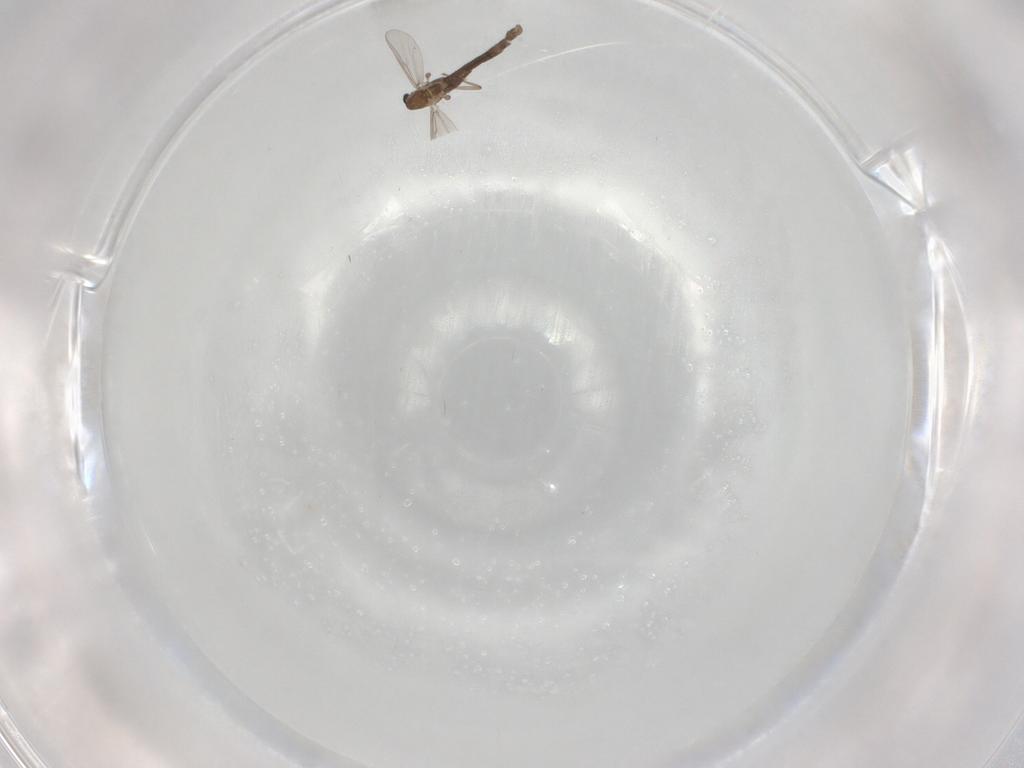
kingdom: Animalia
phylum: Arthropoda
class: Insecta
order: Diptera
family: Chironomidae
